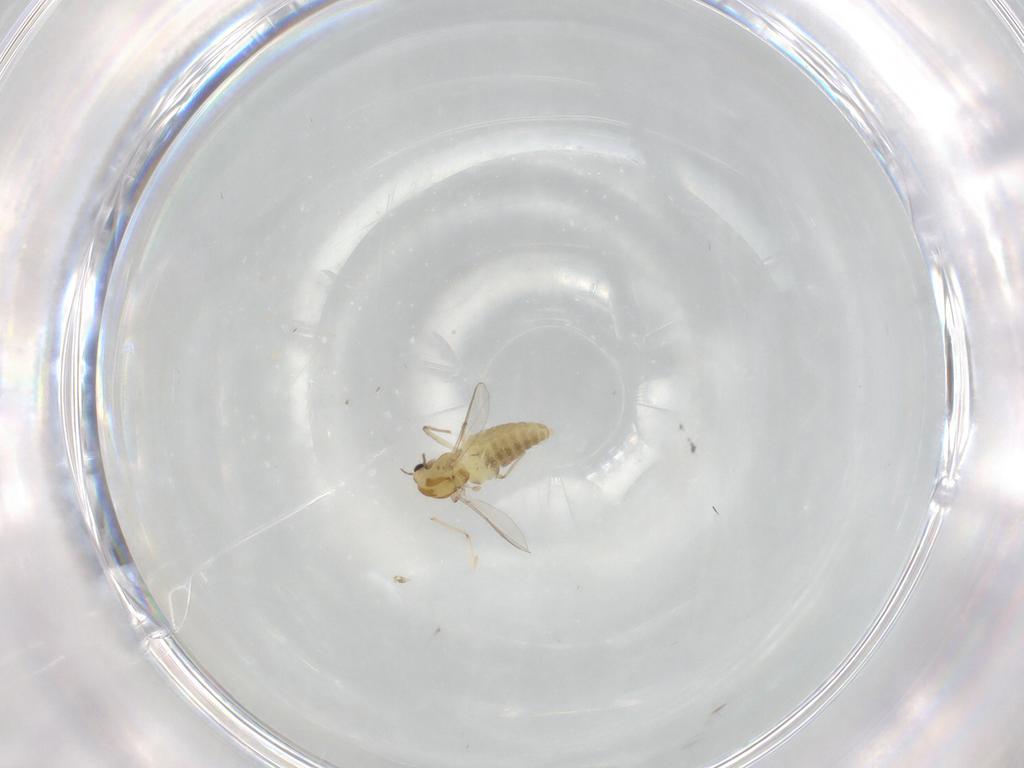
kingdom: Animalia
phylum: Arthropoda
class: Insecta
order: Diptera
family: Chironomidae
